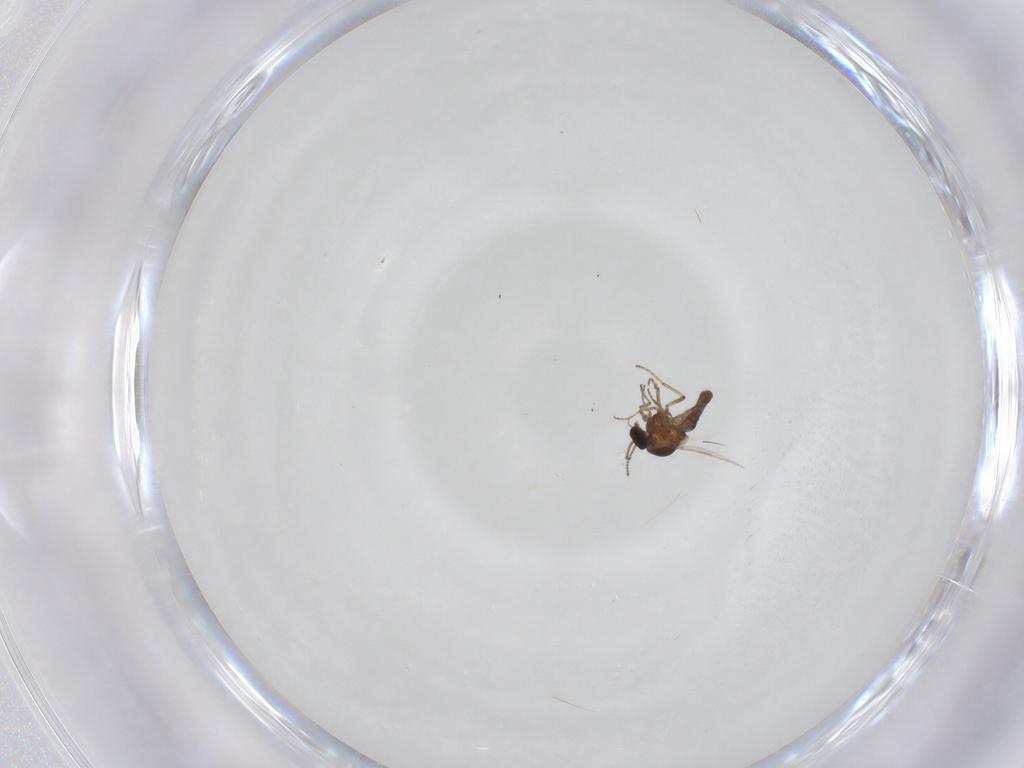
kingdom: Animalia
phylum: Arthropoda
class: Insecta
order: Diptera
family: Ceratopogonidae
